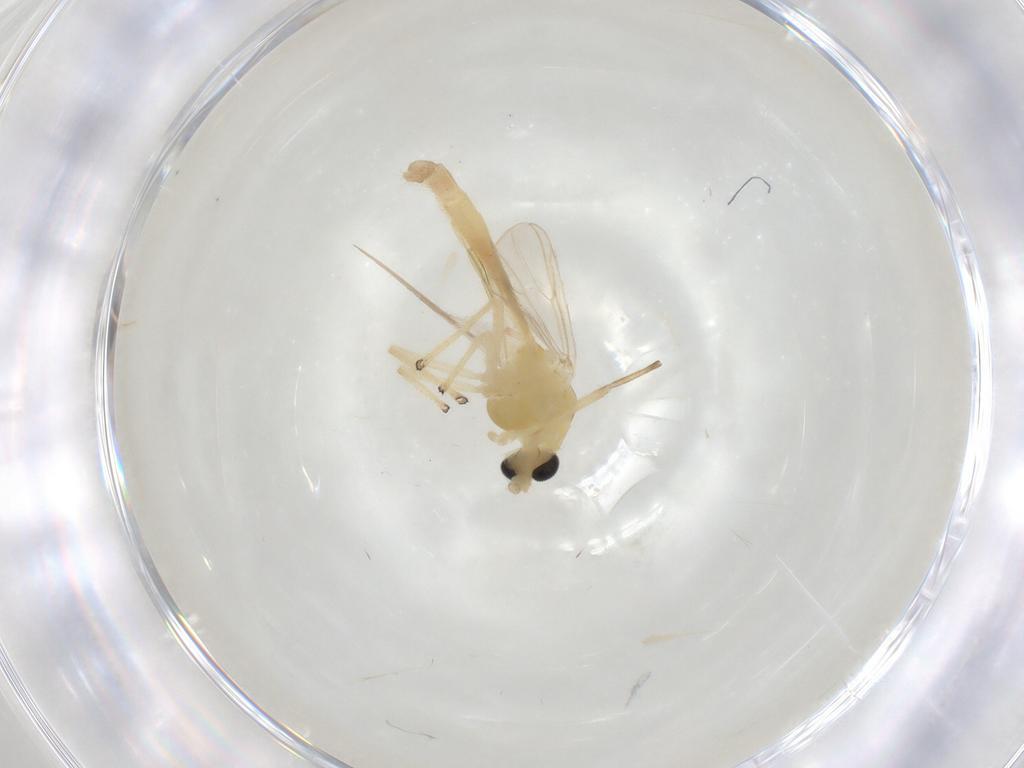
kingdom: Animalia
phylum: Arthropoda
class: Insecta
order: Diptera
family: Chironomidae
